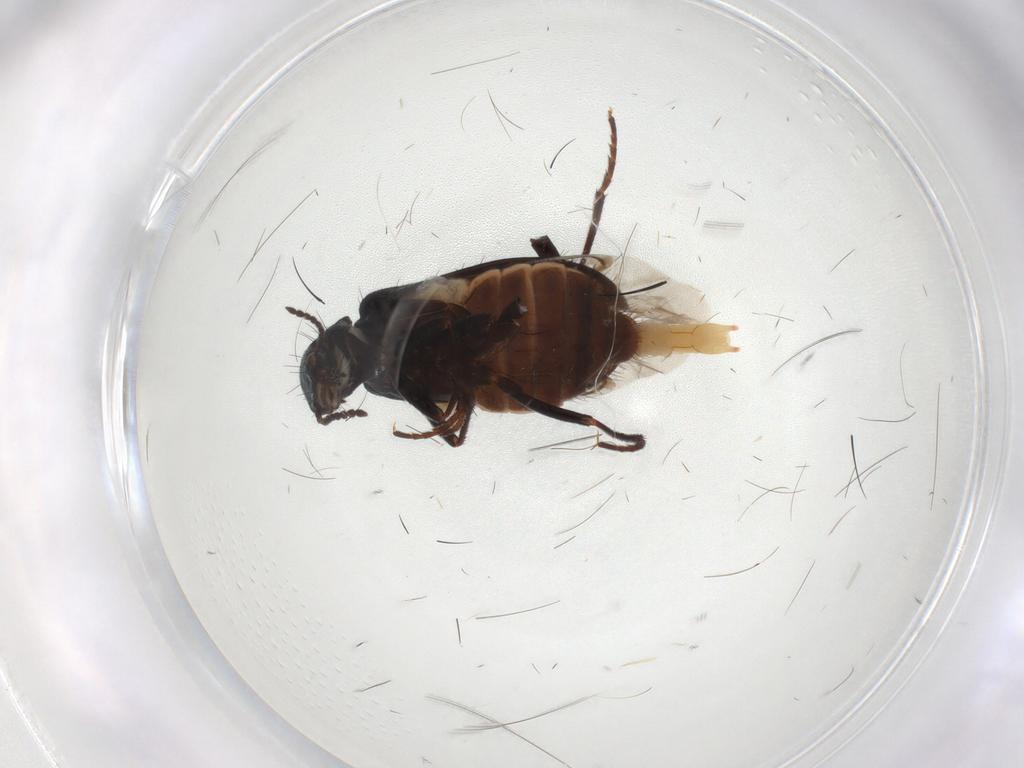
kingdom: Animalia
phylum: Arthropoda
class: Insecta
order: Coleoptera
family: Melyridae
